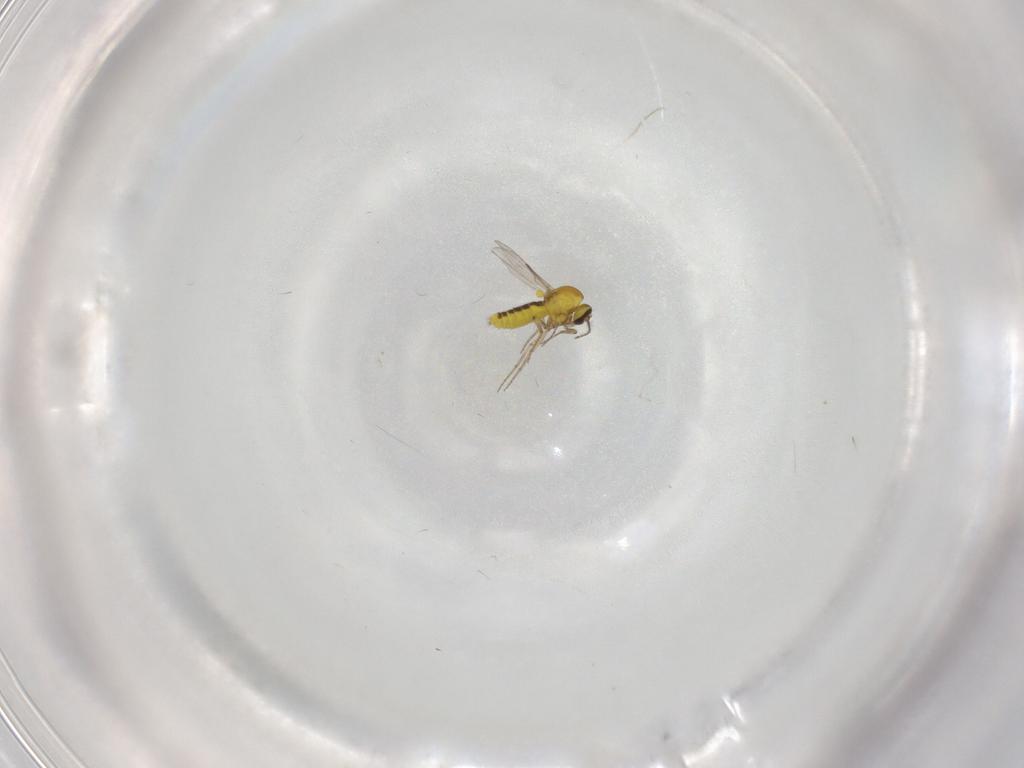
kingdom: Animalia
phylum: Arthropoda
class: Insecta
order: Diptera
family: Ceratopogonidae
